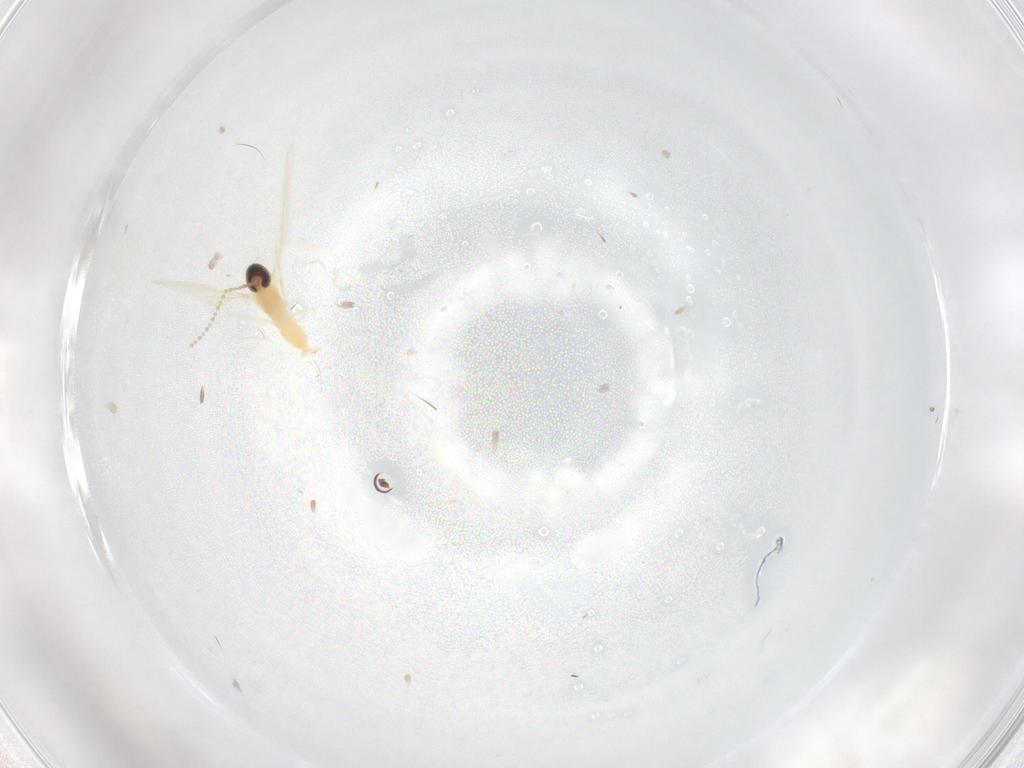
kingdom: Animalia
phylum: Arthropoda
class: Insecta
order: Diptera
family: Cecidomyiidae
